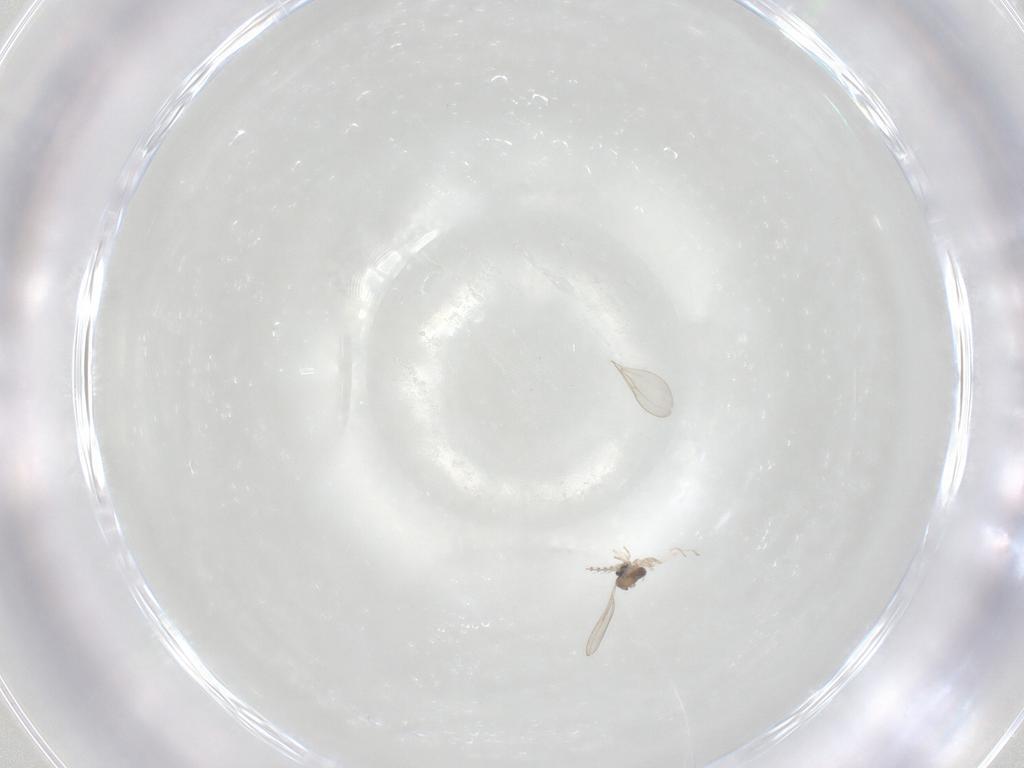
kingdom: Animalia
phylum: Arthropoda
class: Insecta
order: Diptera
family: Cecidomyiidae
